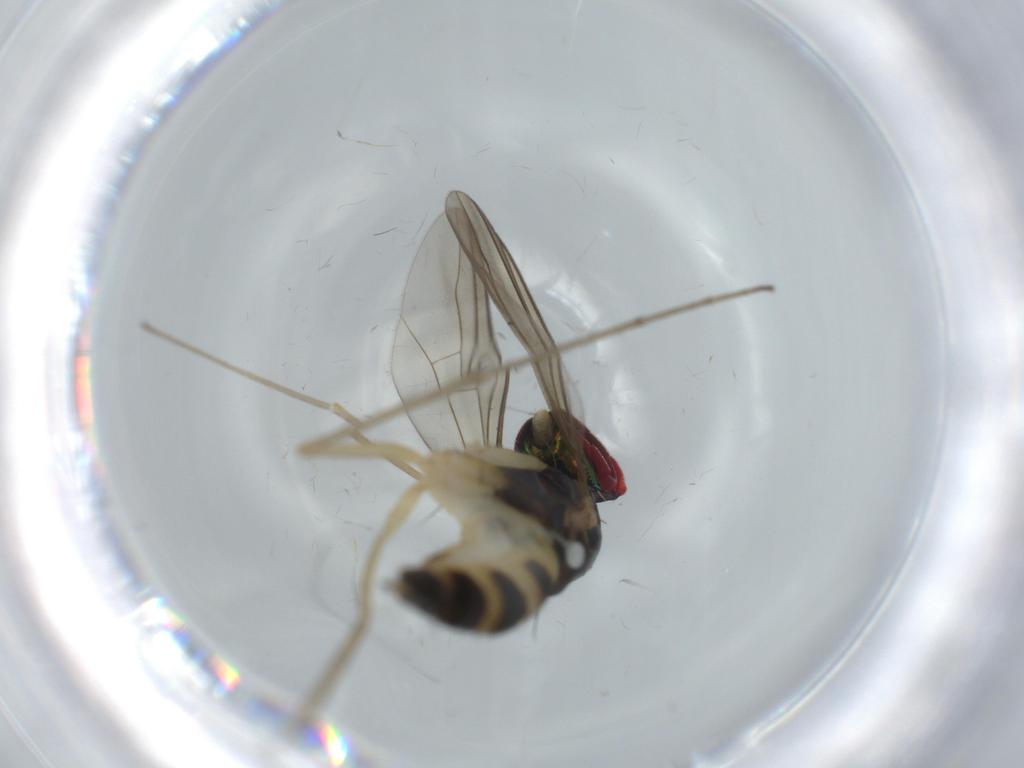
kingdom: Animalia
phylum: Arthropoda
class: Insecta
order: Diptera
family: Dolichopodidae
